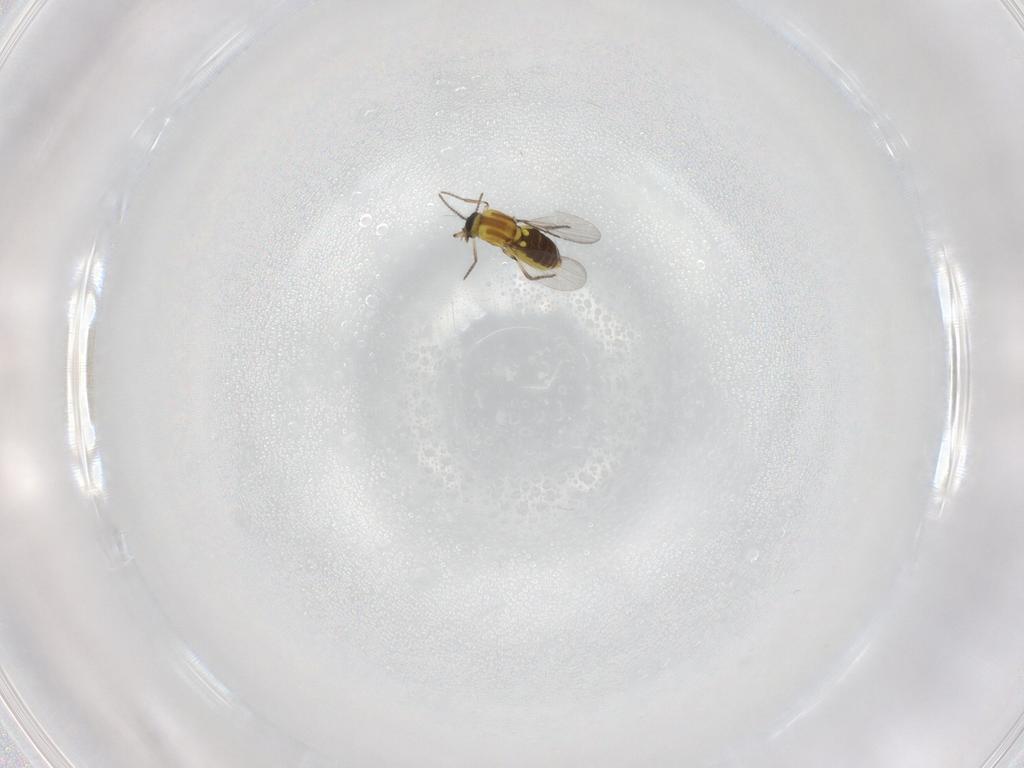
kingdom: Animalia
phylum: Arthropoda
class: Insecta
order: Diptera
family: Ceratopogonidae
